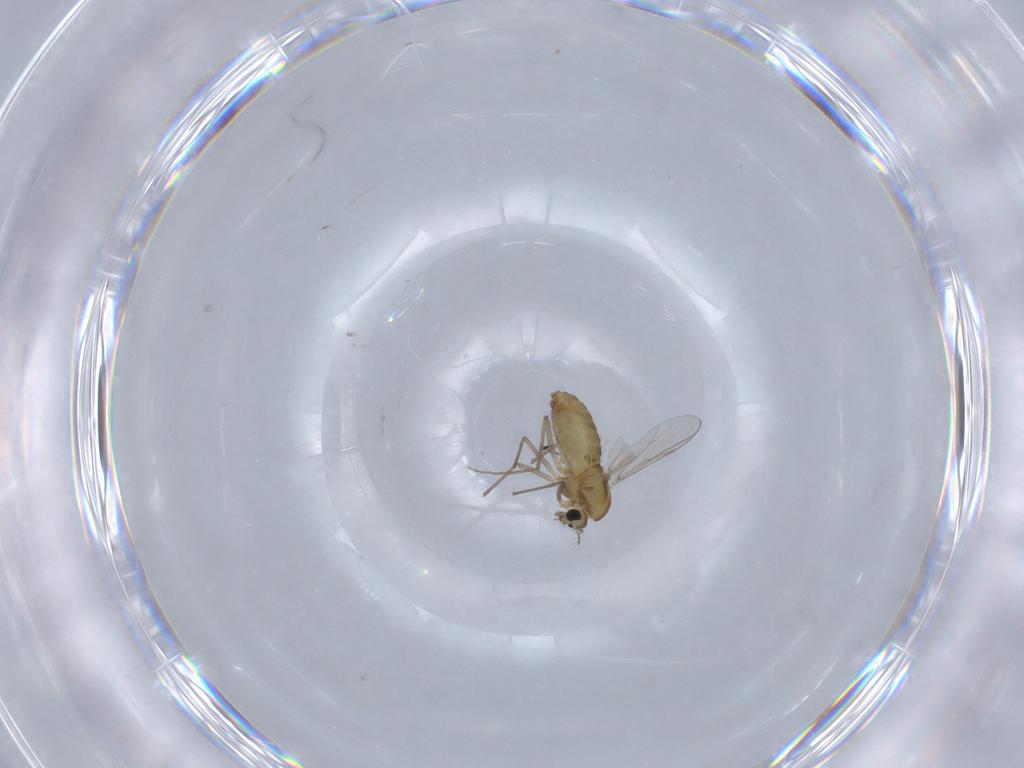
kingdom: Animalia
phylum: Arthropoda
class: Insecta
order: Diptera
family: Chironomidae
